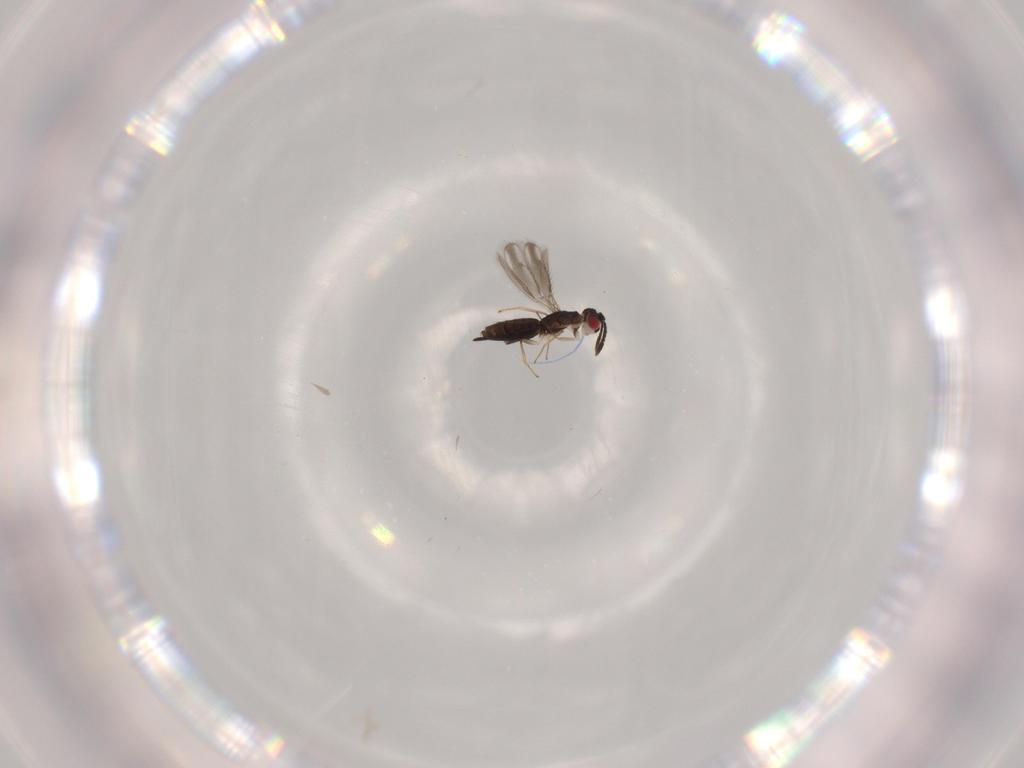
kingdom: Animalia
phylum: Arthropoda
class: Insecta
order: Hymenoptera
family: Pteromalidae
